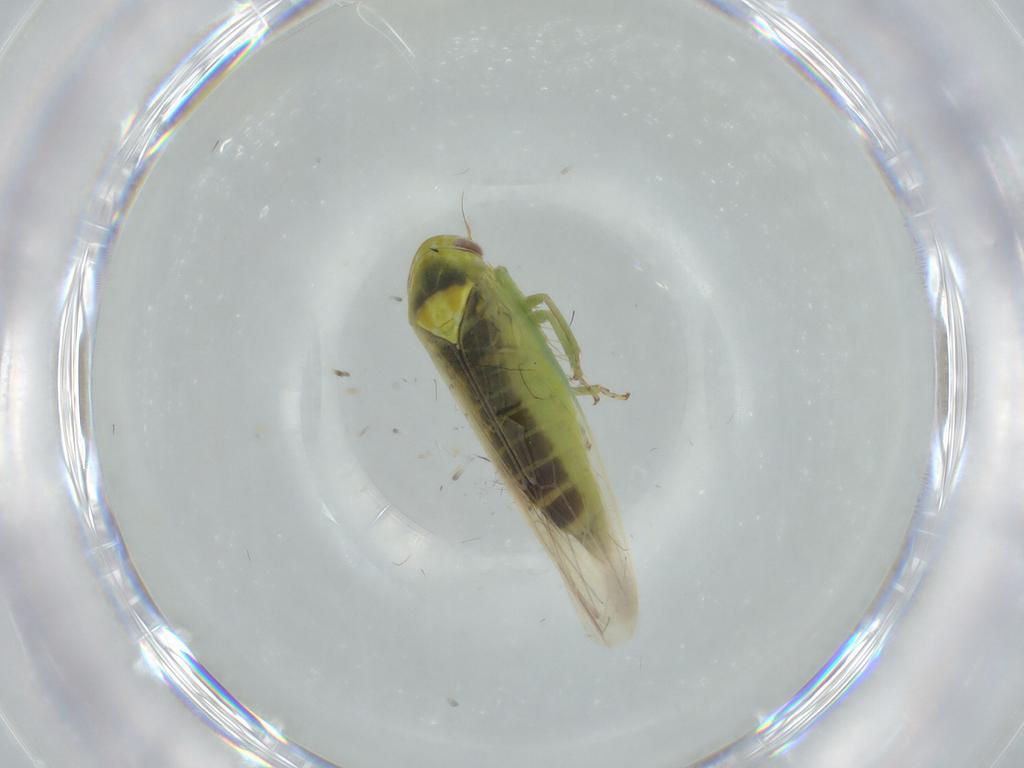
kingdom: Animalia
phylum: Arthropoda
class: Insecta
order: Hemiptera
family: Cicadellidae
